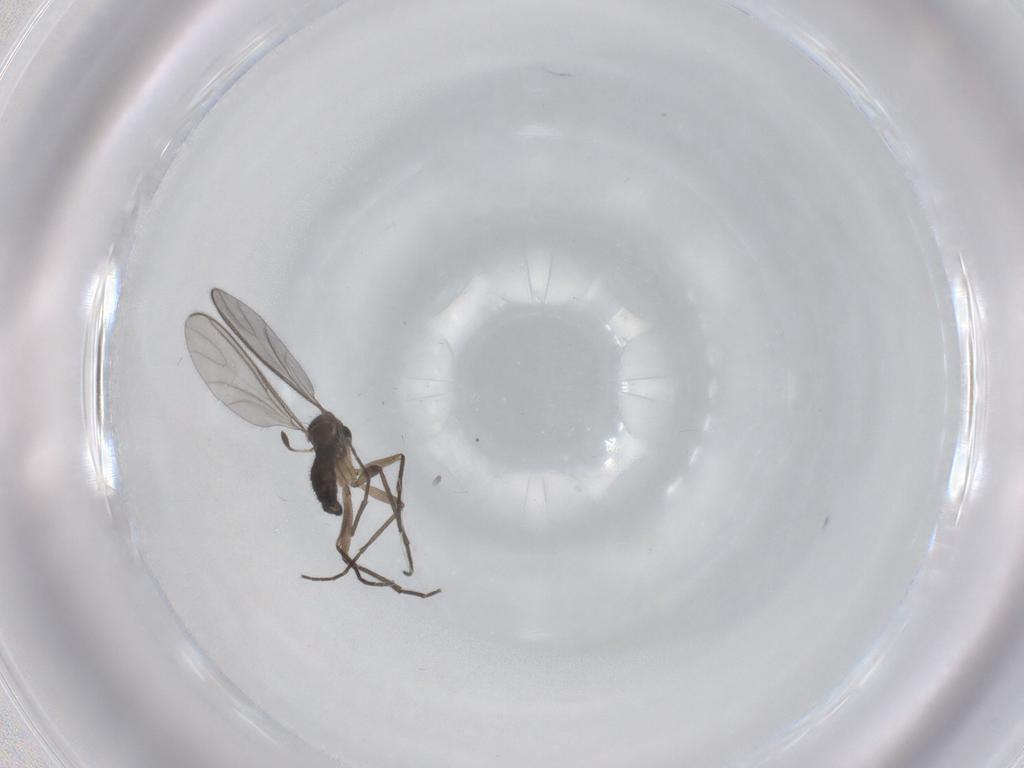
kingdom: Animalia
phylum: Arthropoda
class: Insecta
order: Diptera
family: Sciaridae
